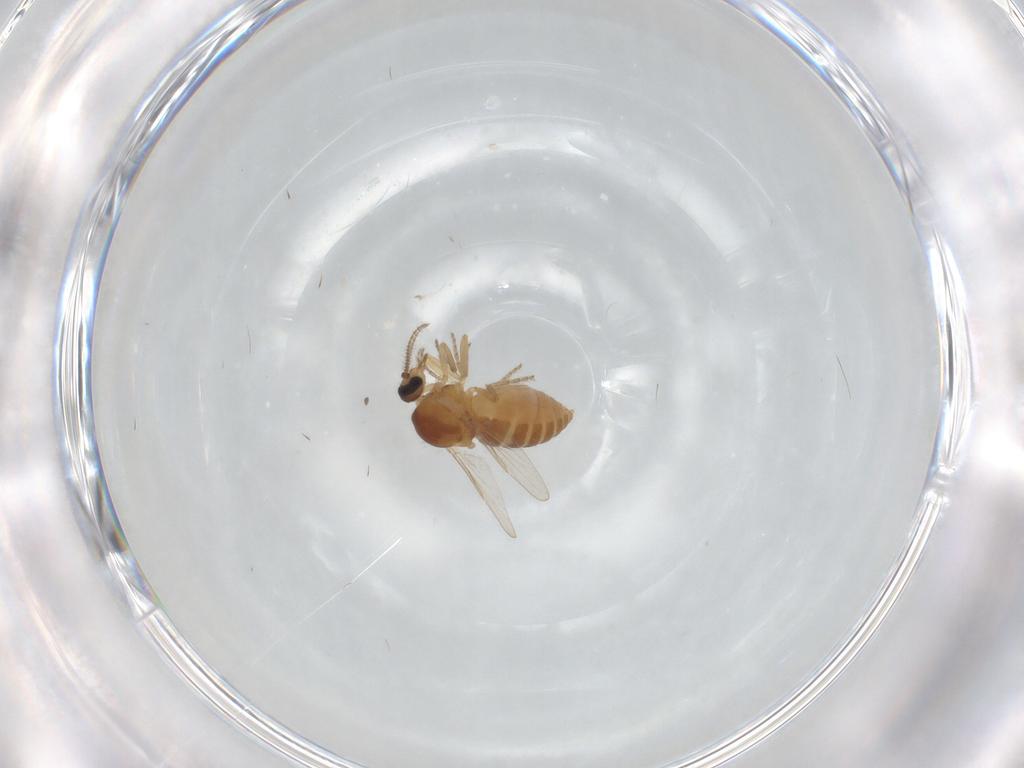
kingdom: Animalia
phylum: Arthropoda
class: Insecta
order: Diptera
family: Ceratopogonidae
